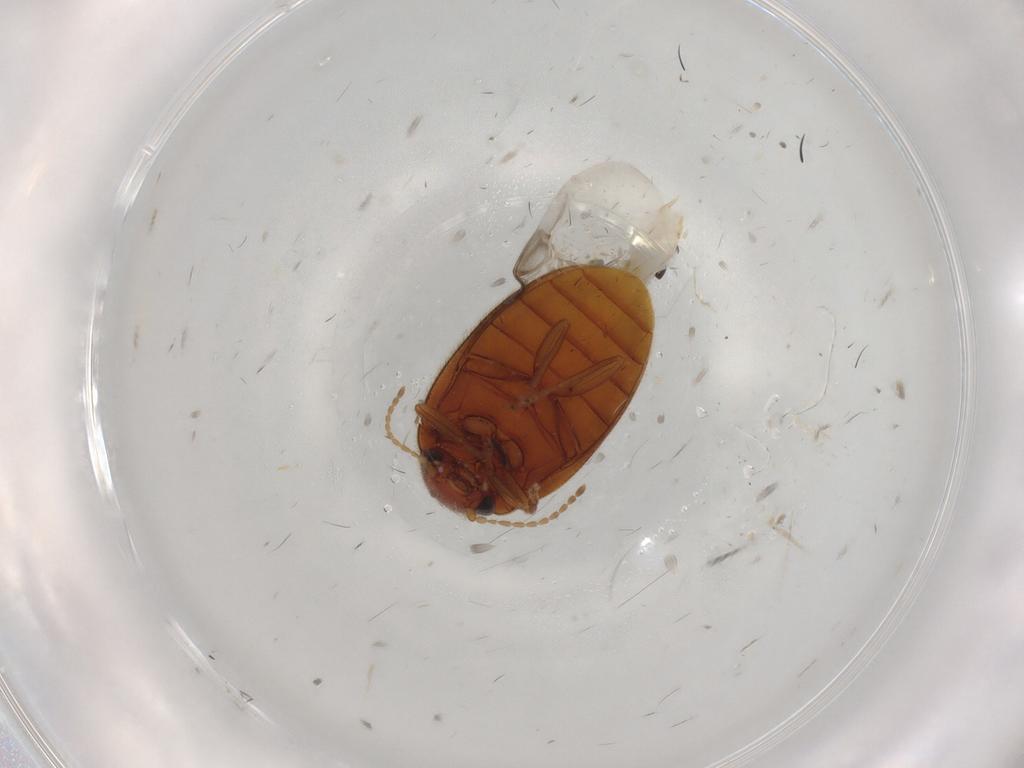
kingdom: Animalia
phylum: Arthropoda
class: Insecta
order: Coleoptera
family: Scirtidae
